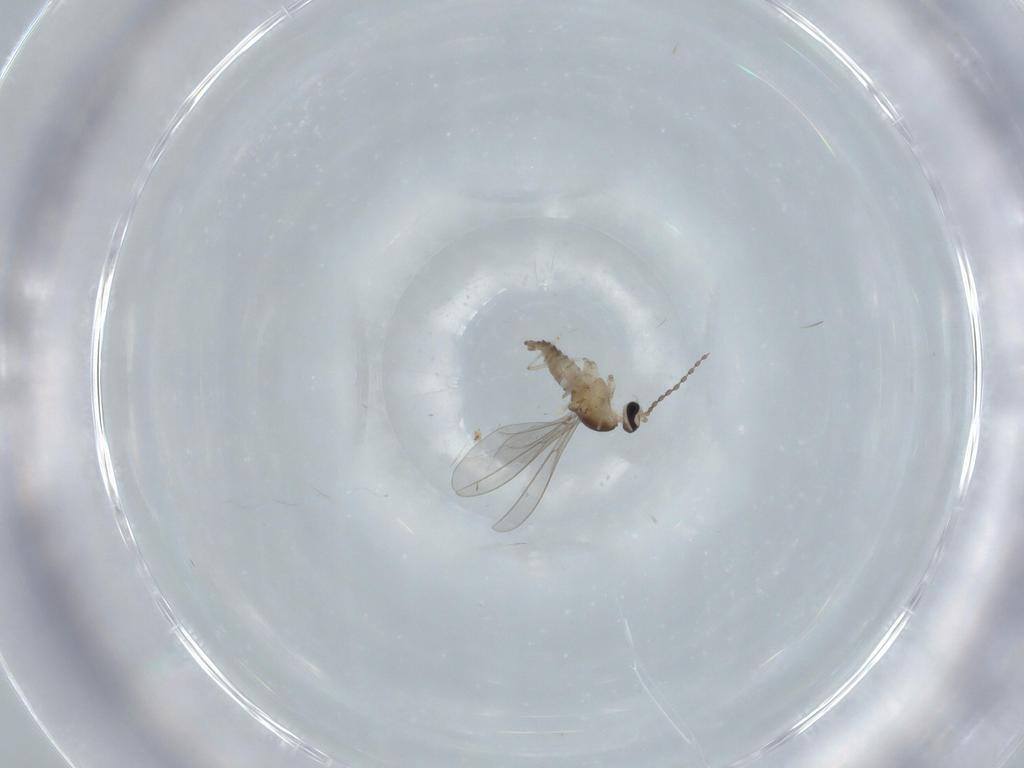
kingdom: Animalia
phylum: Arthropoda
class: Insecta
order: Diptera
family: Cecidomyiidae
